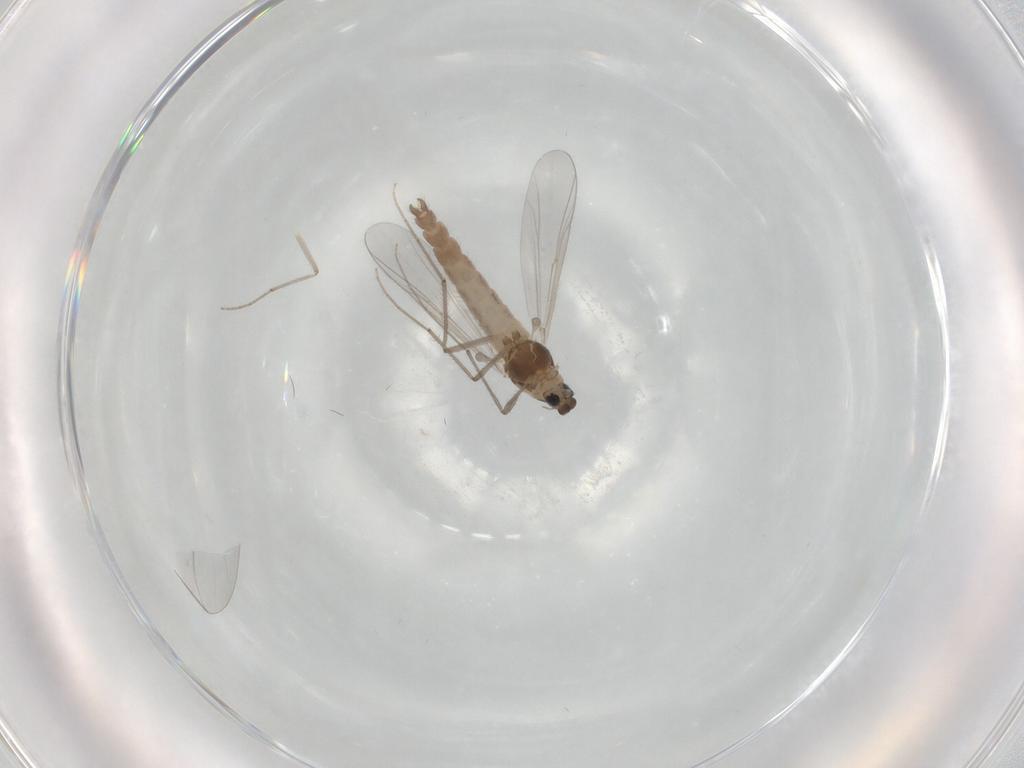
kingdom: Animalia
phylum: Arthropoda
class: Insecta
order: Diptera
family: Chironomidae
